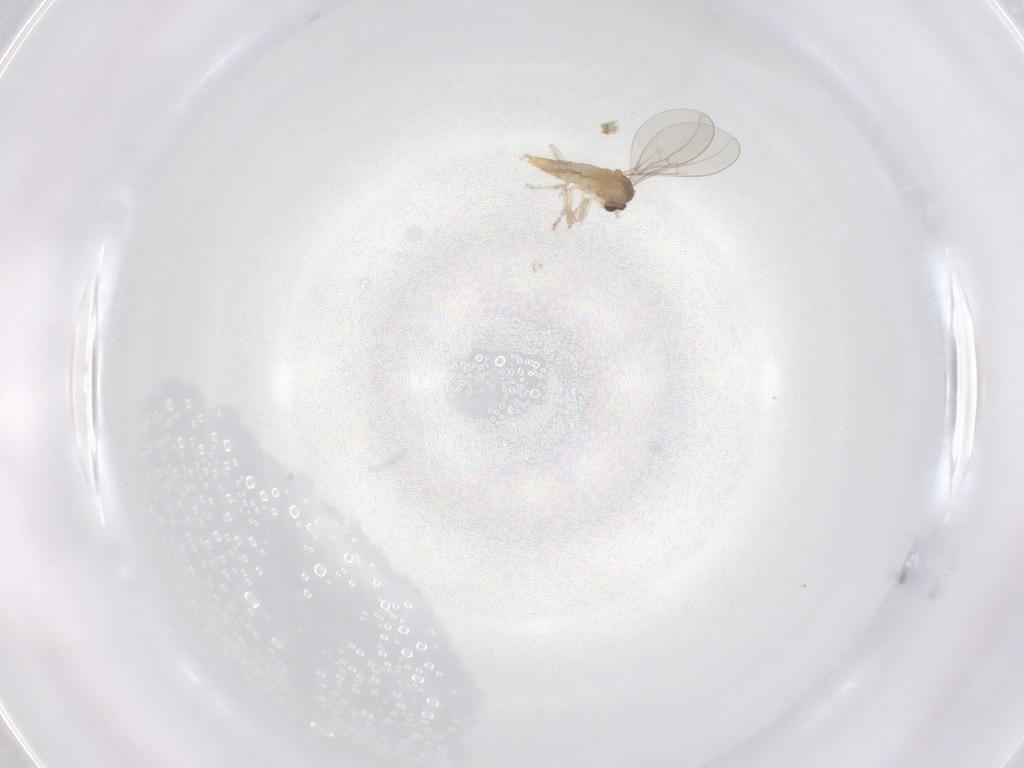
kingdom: Animalia
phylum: Arthropoda
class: Insecta
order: Diptera
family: Cecidomyiidae
